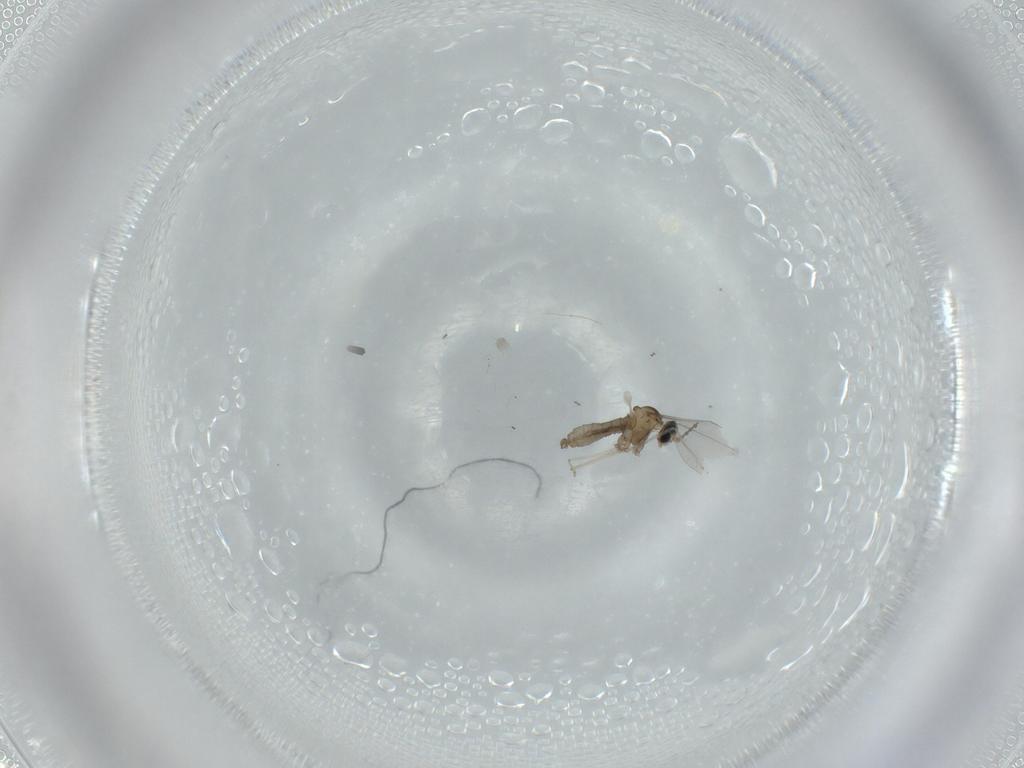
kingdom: Animalia
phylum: Arthropoda
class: Insecta
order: Diptera
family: Cecidomyiidae
